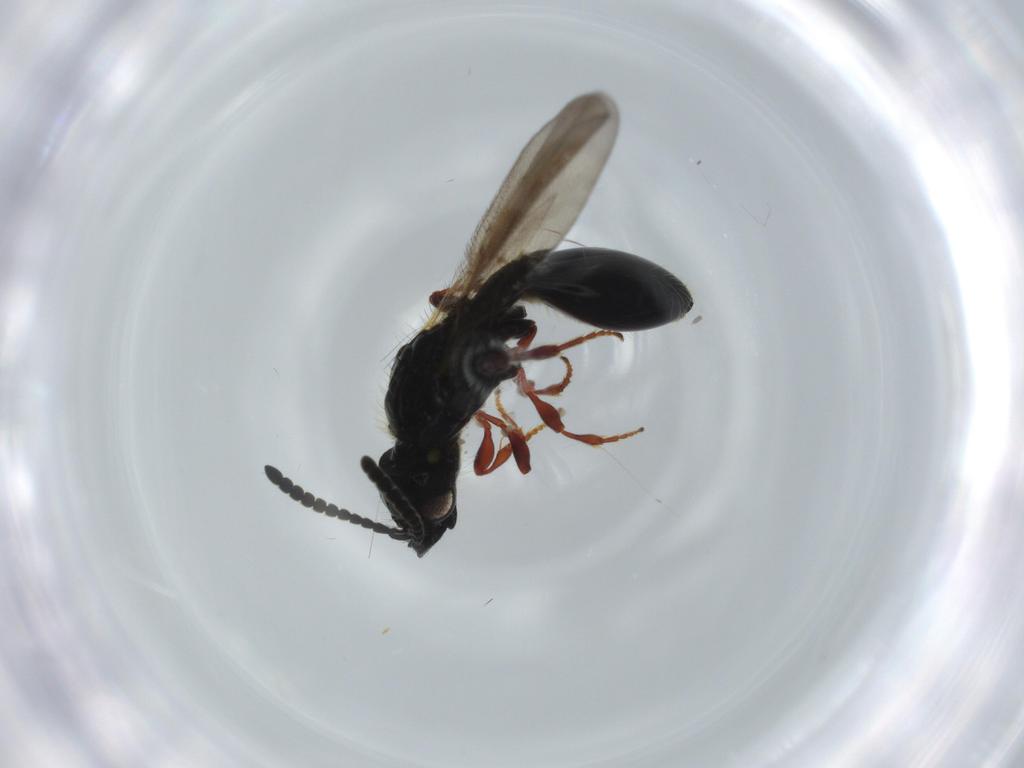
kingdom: Animalia
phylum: Arthropoda
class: Insecta
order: Hymenoptera
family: Diapriidae
